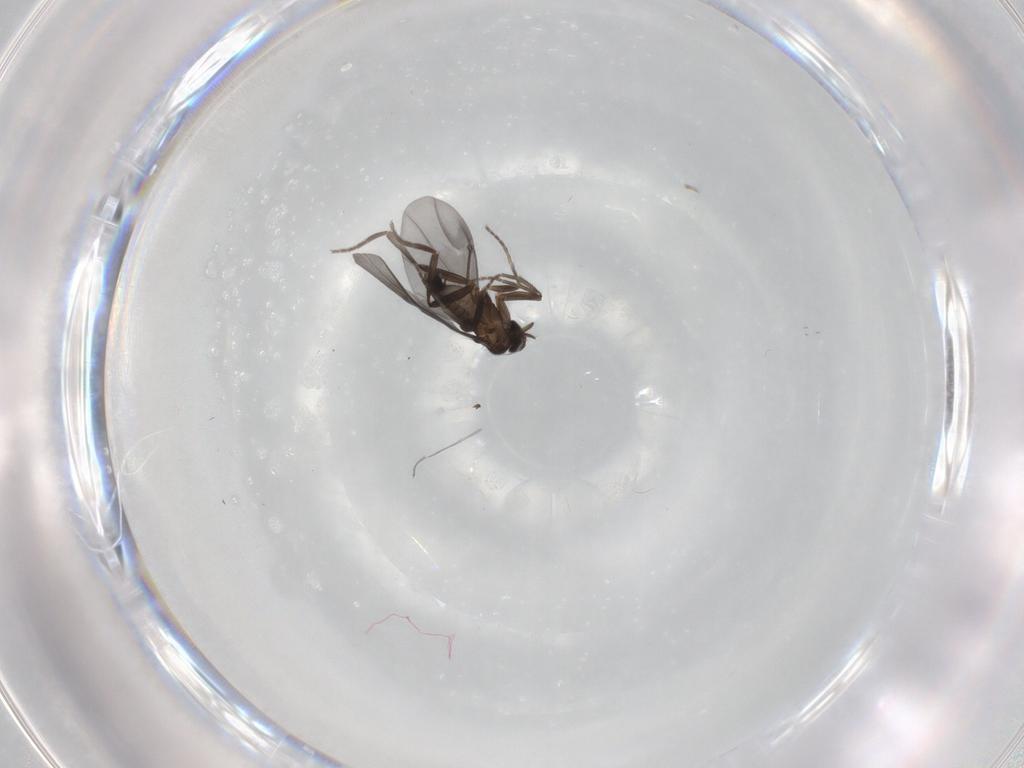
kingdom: Animalia
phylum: Arthropoda
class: Insecta
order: Diptera
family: Phoridae
